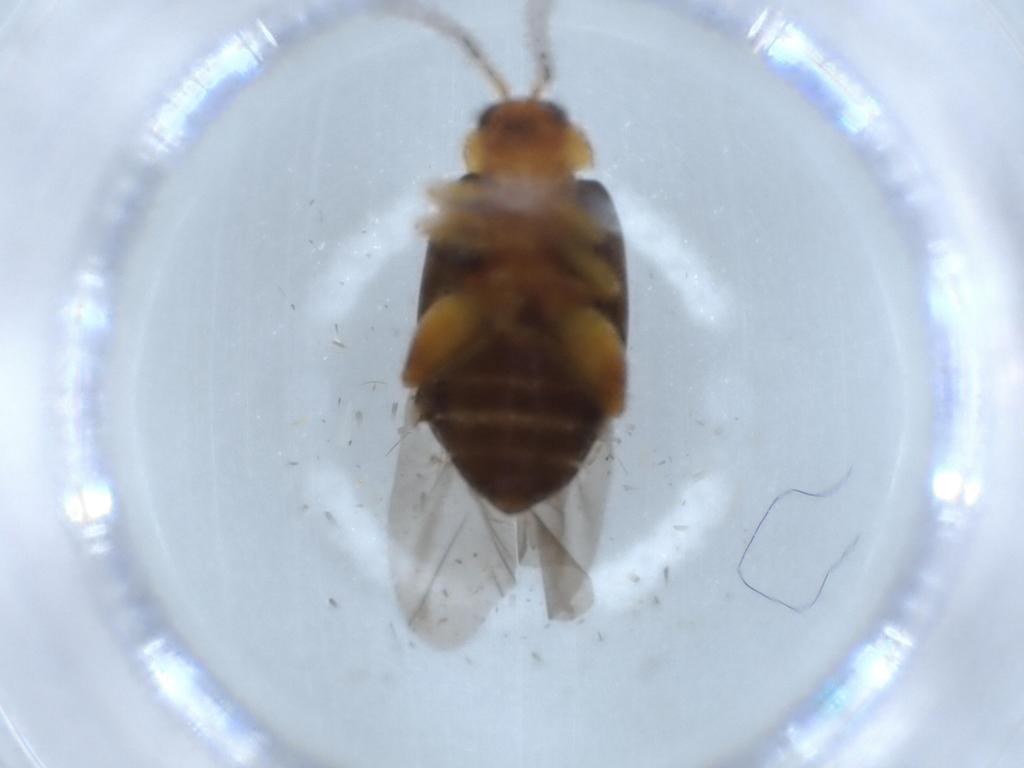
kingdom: Animalia
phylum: Arthropoda
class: Insecta
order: Coleoptera
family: Chrysomelidae
